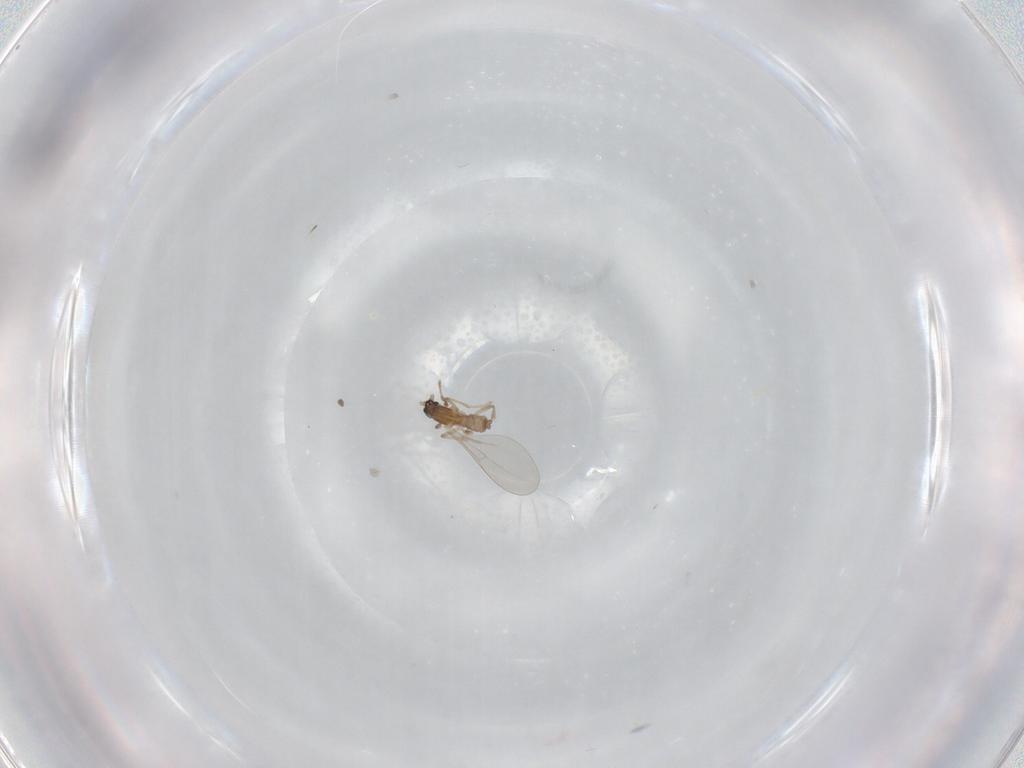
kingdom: Animalia
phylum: Arthropoda
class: Insecta
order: Diptera
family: Cecidomyiidae
